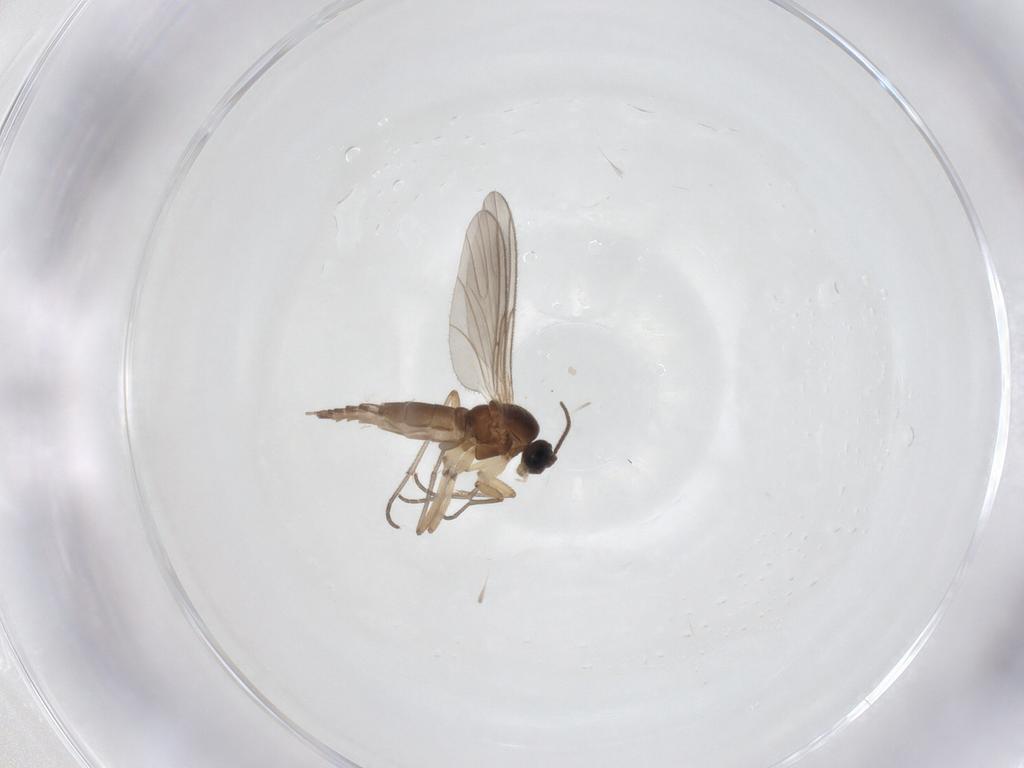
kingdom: Animalia
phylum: Arthropoda
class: Insecta
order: Diptera
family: Sciaridae
